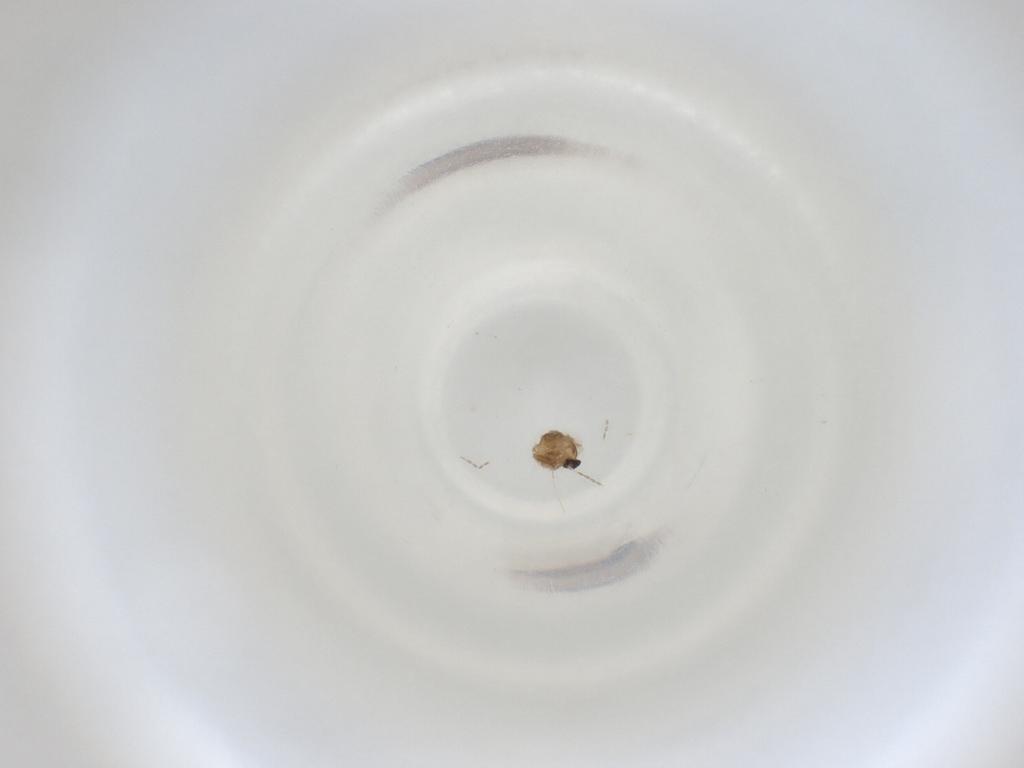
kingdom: Animalia
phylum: Arthropoda
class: Insecta
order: Diptera
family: Cecidomyiidae
